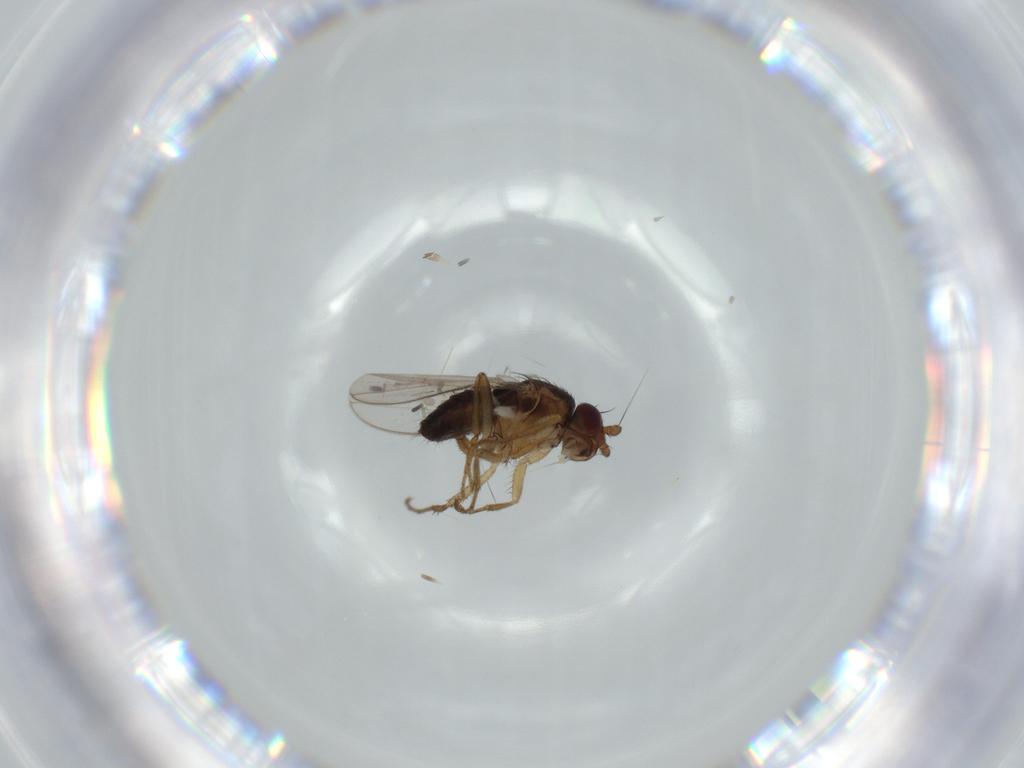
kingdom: Animalia
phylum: Arthropoda
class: Insecta
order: Diptera
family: Sphaeroceridae
